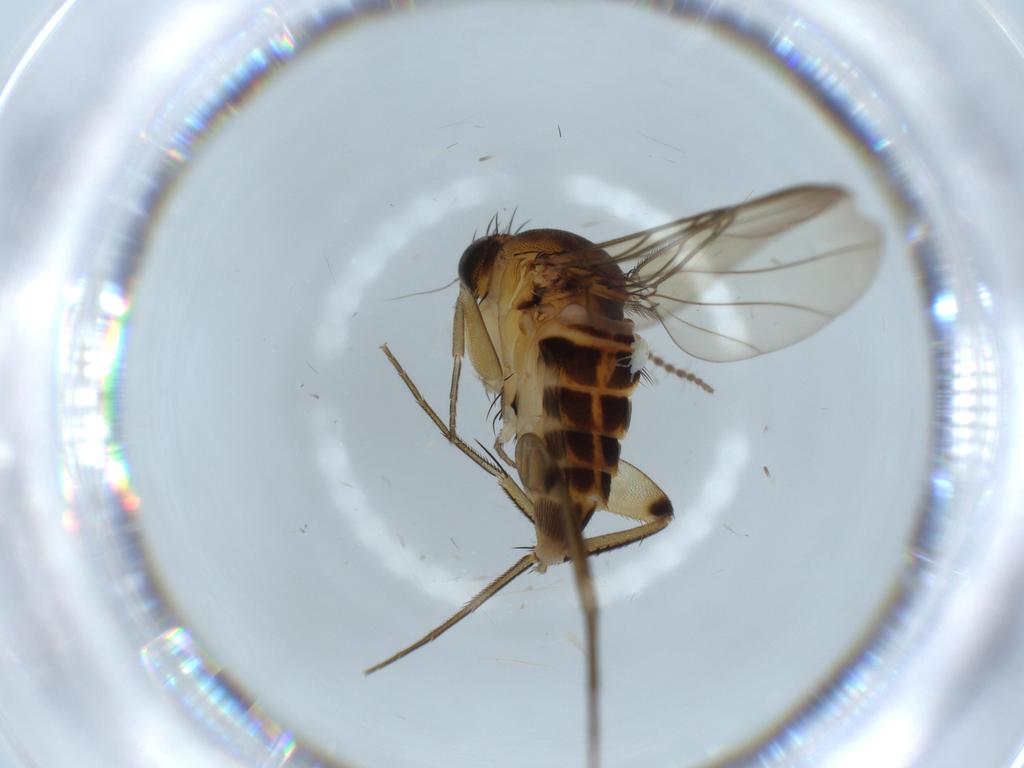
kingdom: Animalia
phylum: Arthropoda
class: Insecta
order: Diptera
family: Phoridae
